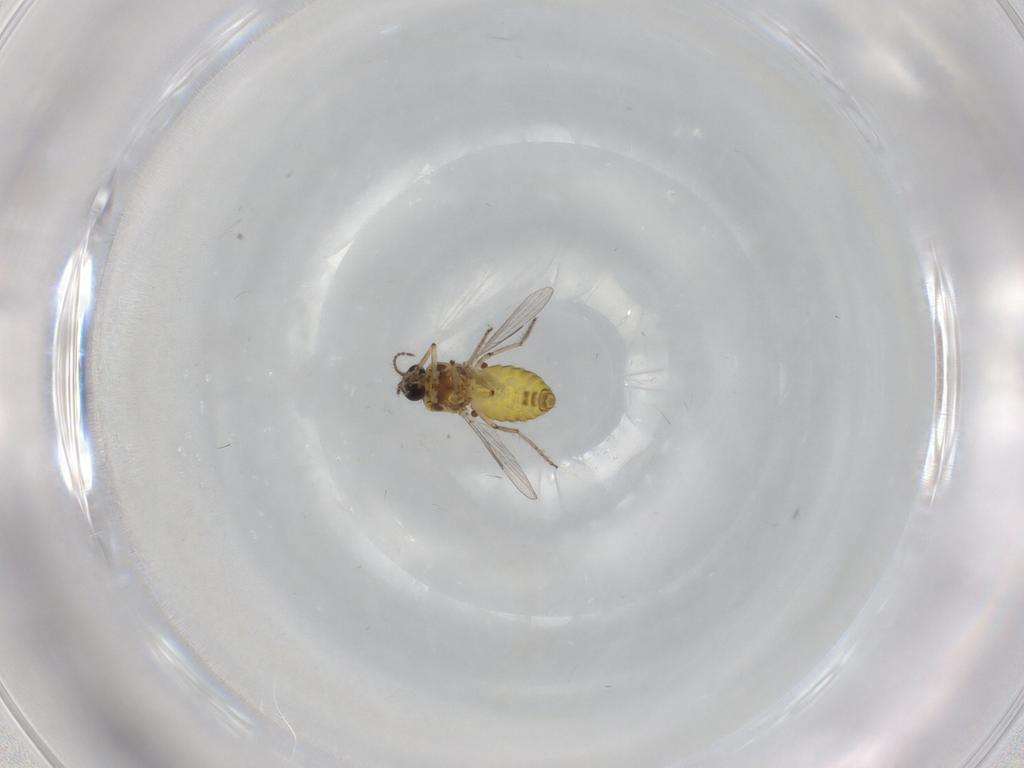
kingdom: Animalia
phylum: Arthropoda
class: Insecta
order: Diptera
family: Ceratopogonidae
